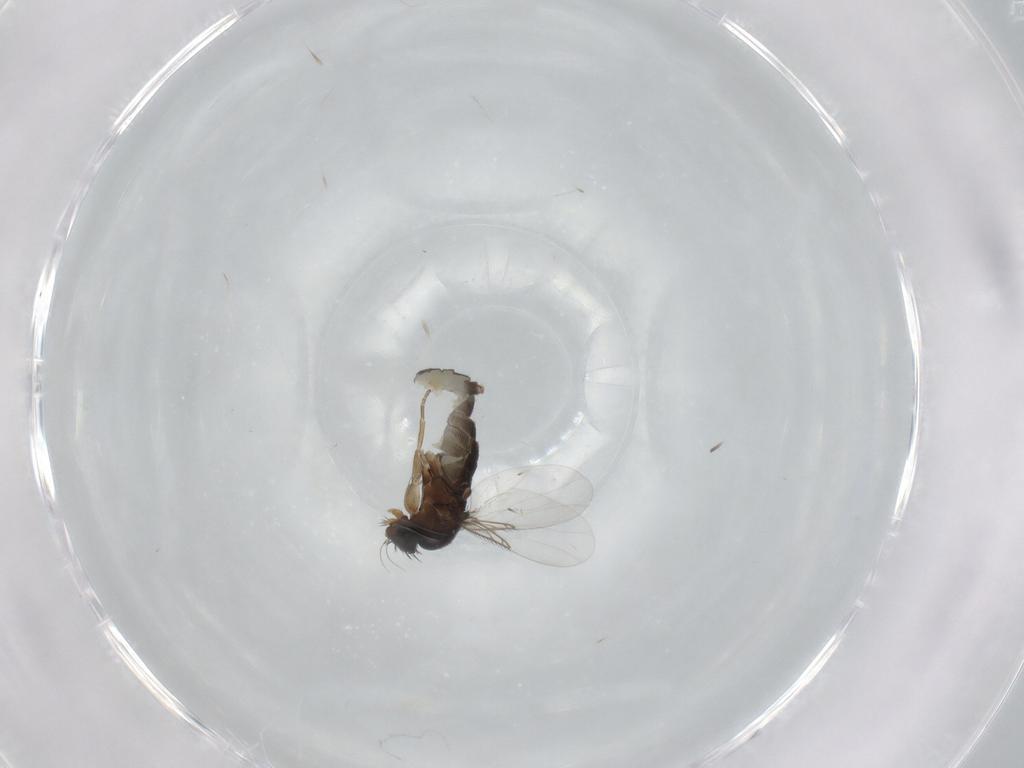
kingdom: Animalia
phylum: Arthropoda
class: Insecta
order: Diptera
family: Phoridae
